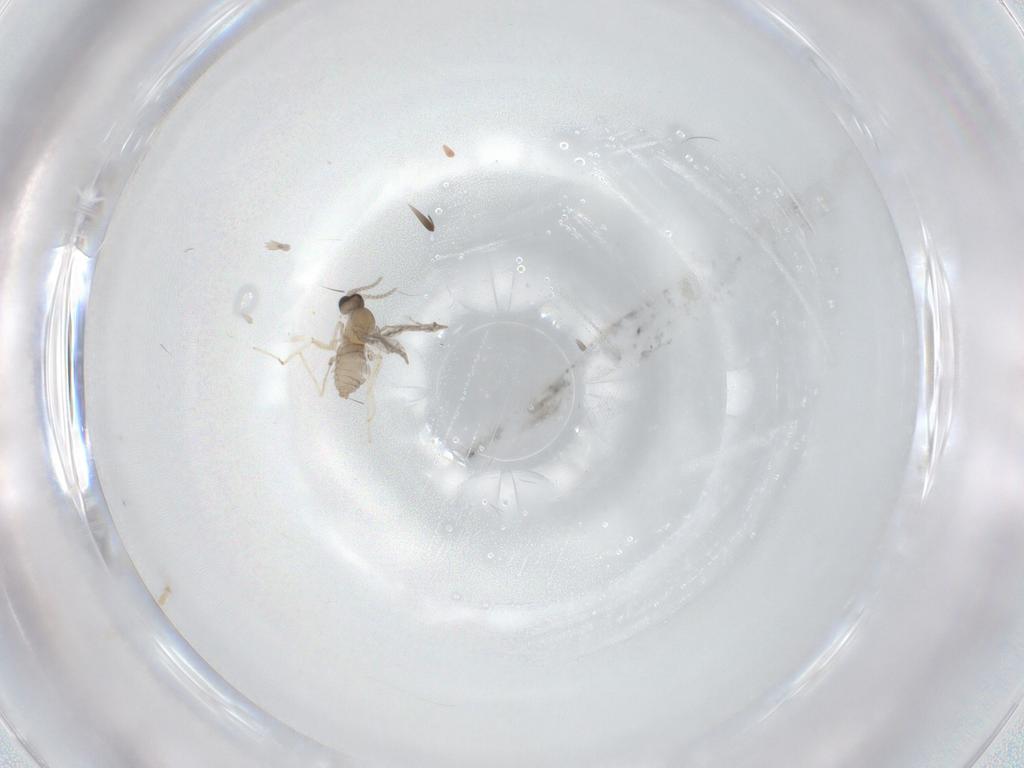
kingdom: Animalia
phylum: Arthropoda
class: Insecta
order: Diptera
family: Cecidomyiidae
